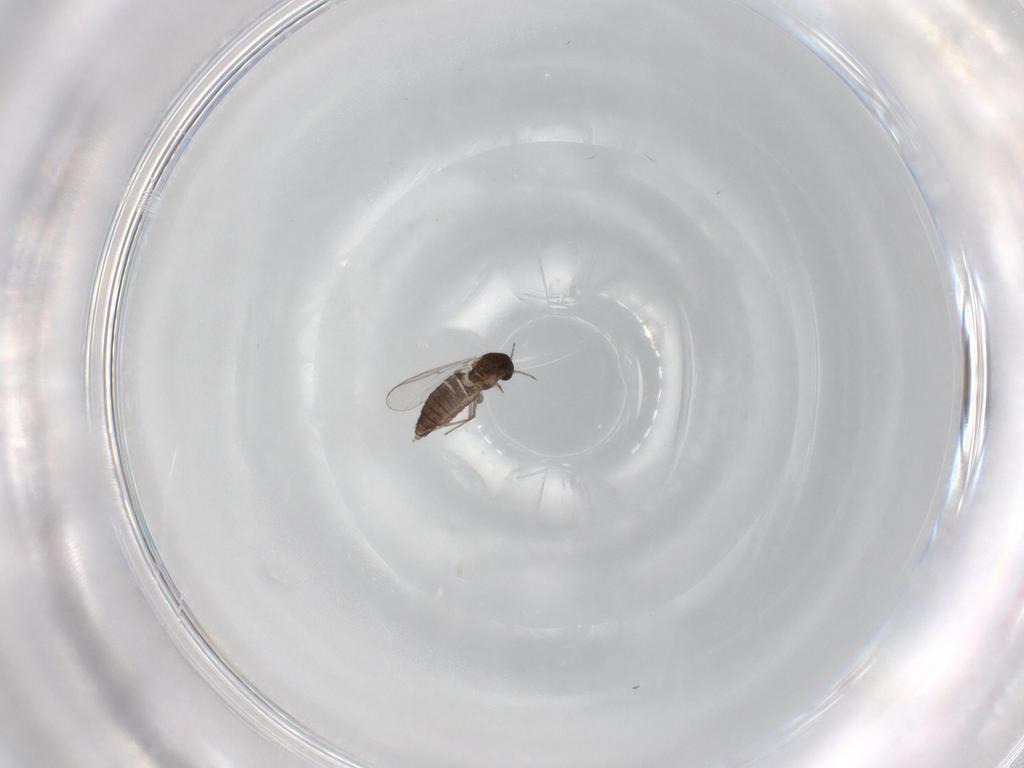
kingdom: Animalia
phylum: Arthropoda
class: Insecta
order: Diptera
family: Chironomidae
